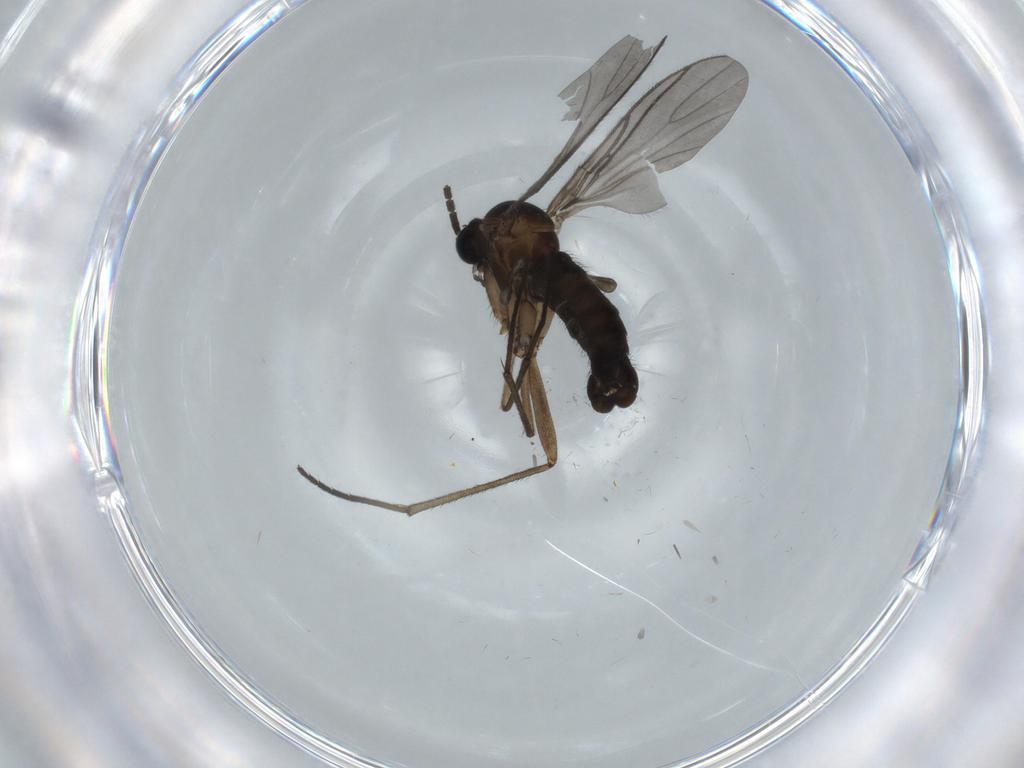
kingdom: Animalia
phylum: Arthropoda
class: Insecta
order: Diptera
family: Sciaridae
